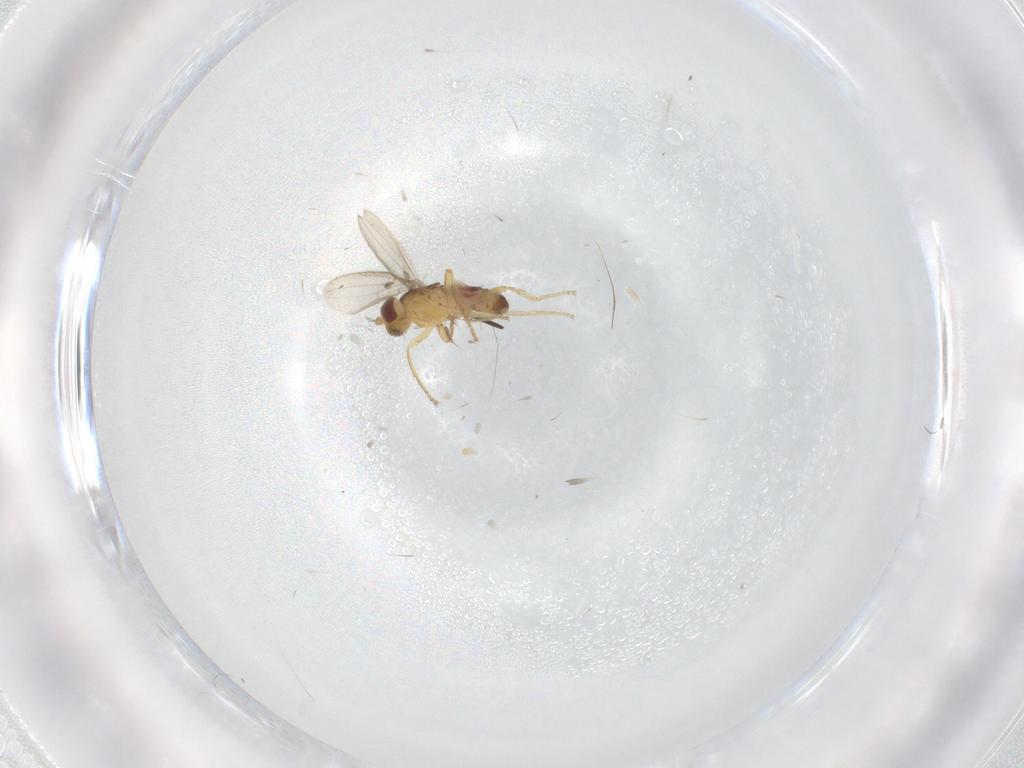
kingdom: Animalia
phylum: Arthropoda
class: Insecta
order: Diptera
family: Periscelididae
